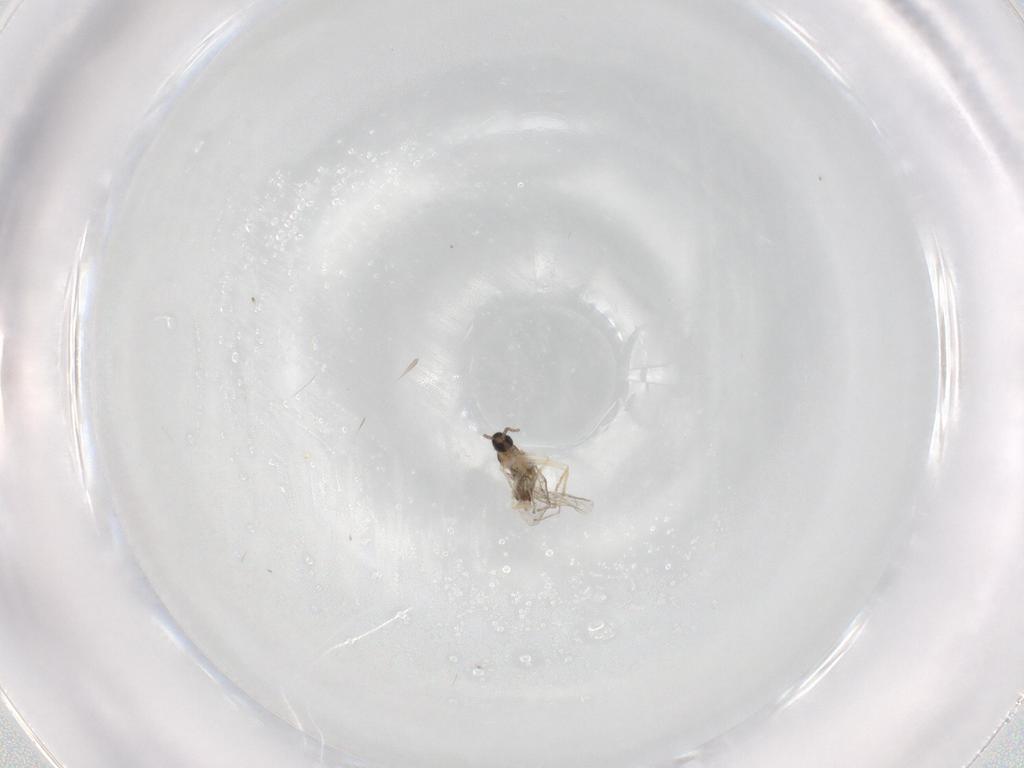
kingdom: Animalia
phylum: Arthropoda
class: Insecta
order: Diptera
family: Cecidomyiidae
